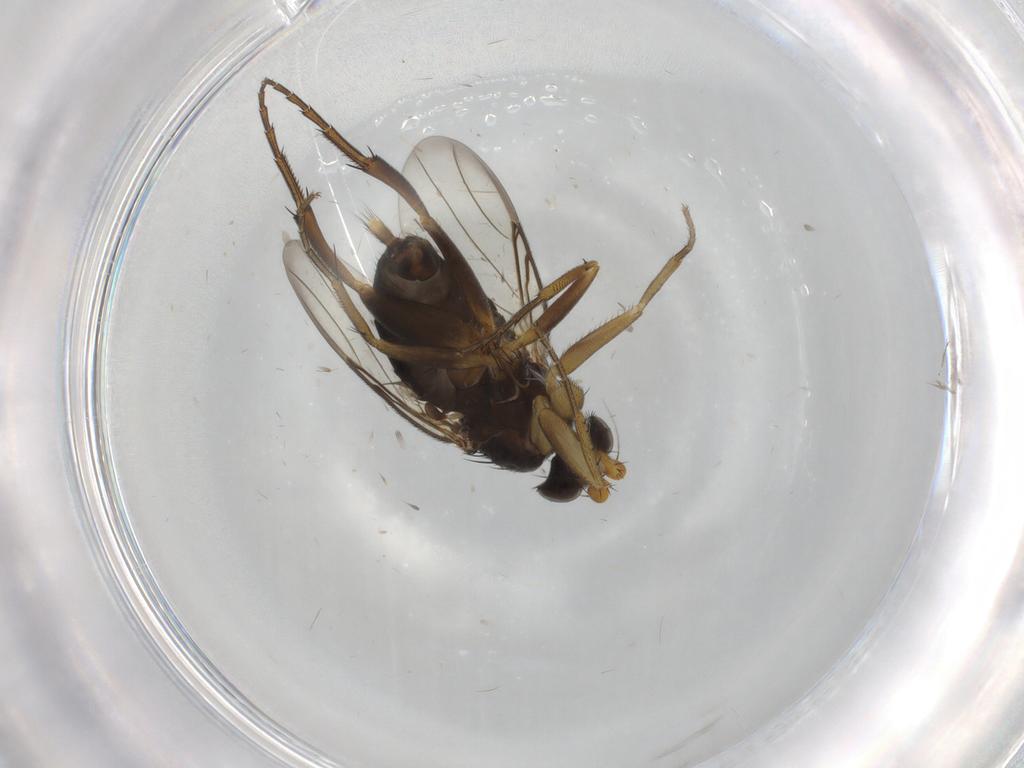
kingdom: Animalia
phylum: Arthropoda
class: Insecta
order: Diptera
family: Phoridae
